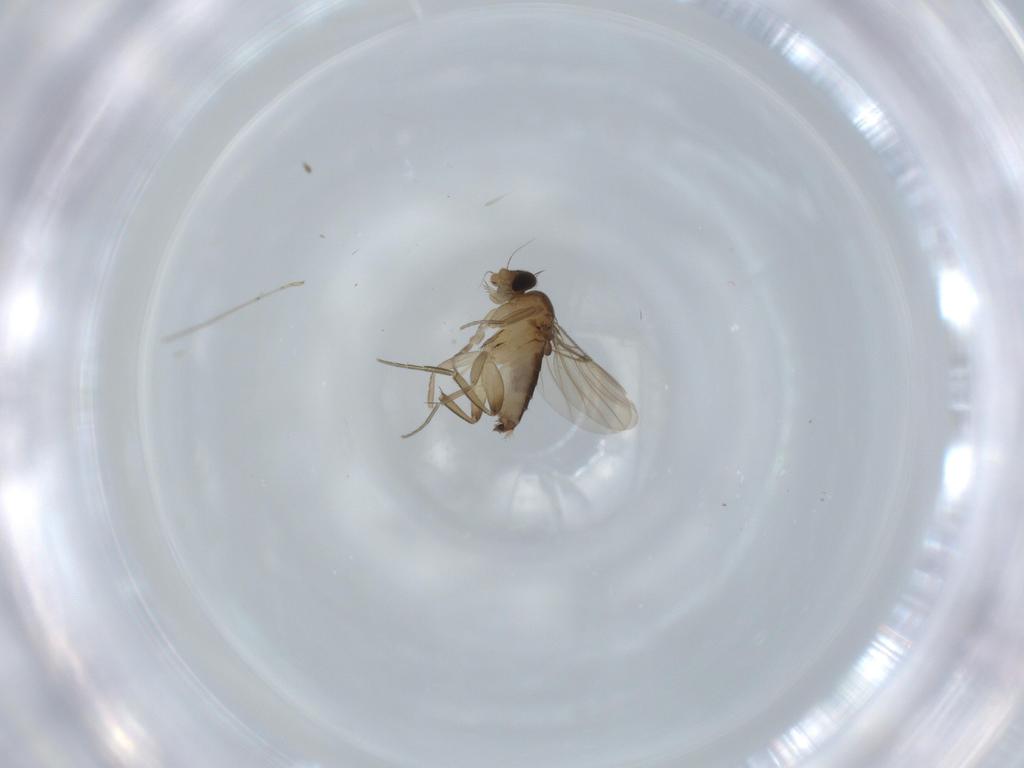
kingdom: Animalia
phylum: Arthropoda
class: Insecta
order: Diptera
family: Phoridae
